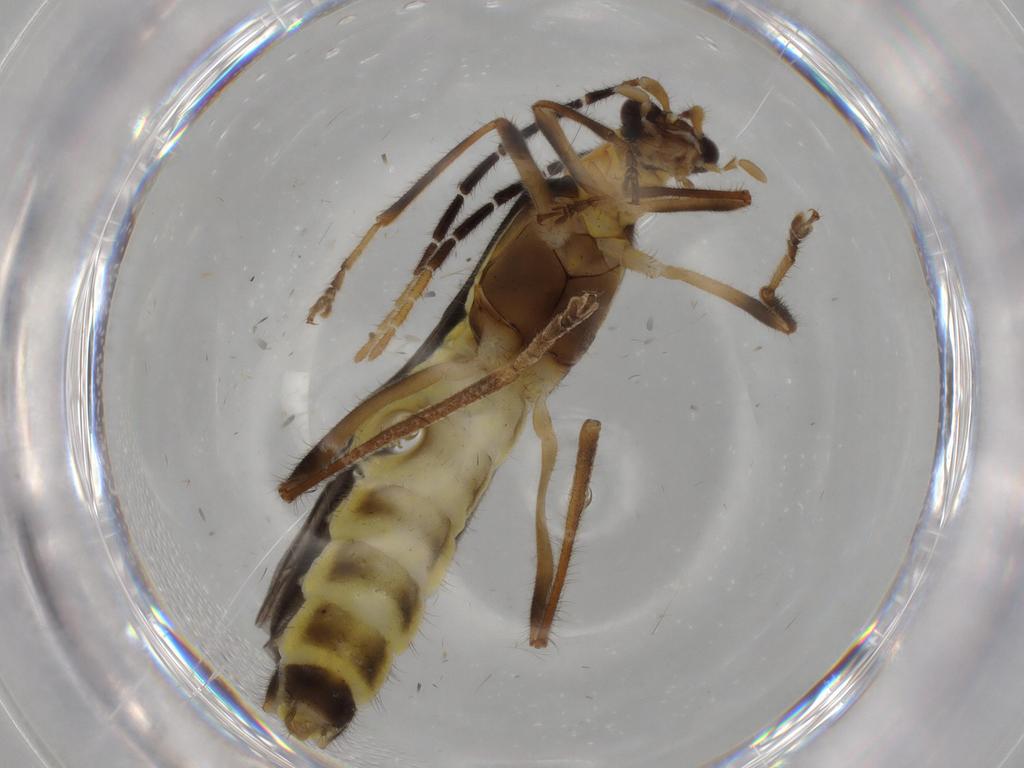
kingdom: Animalia
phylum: Arthropoda
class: Insecta
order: Coleoptera
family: Cantharidae
